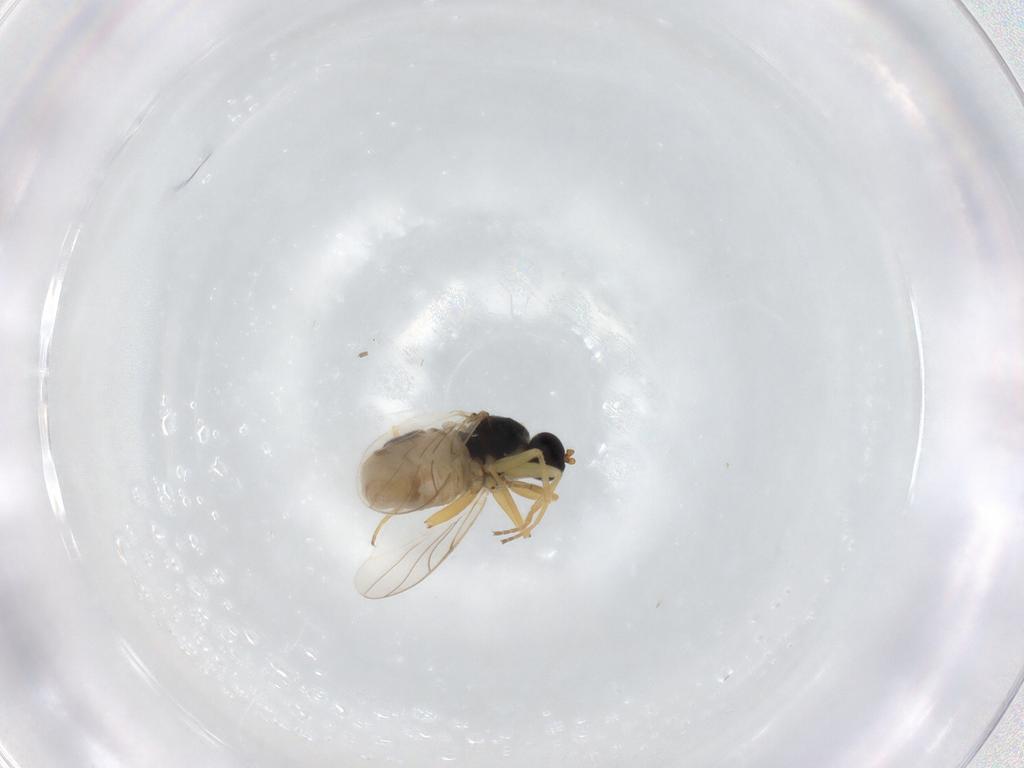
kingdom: Animalia
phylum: Arthropoda
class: Insecta
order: Diptera
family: Hybotidae
